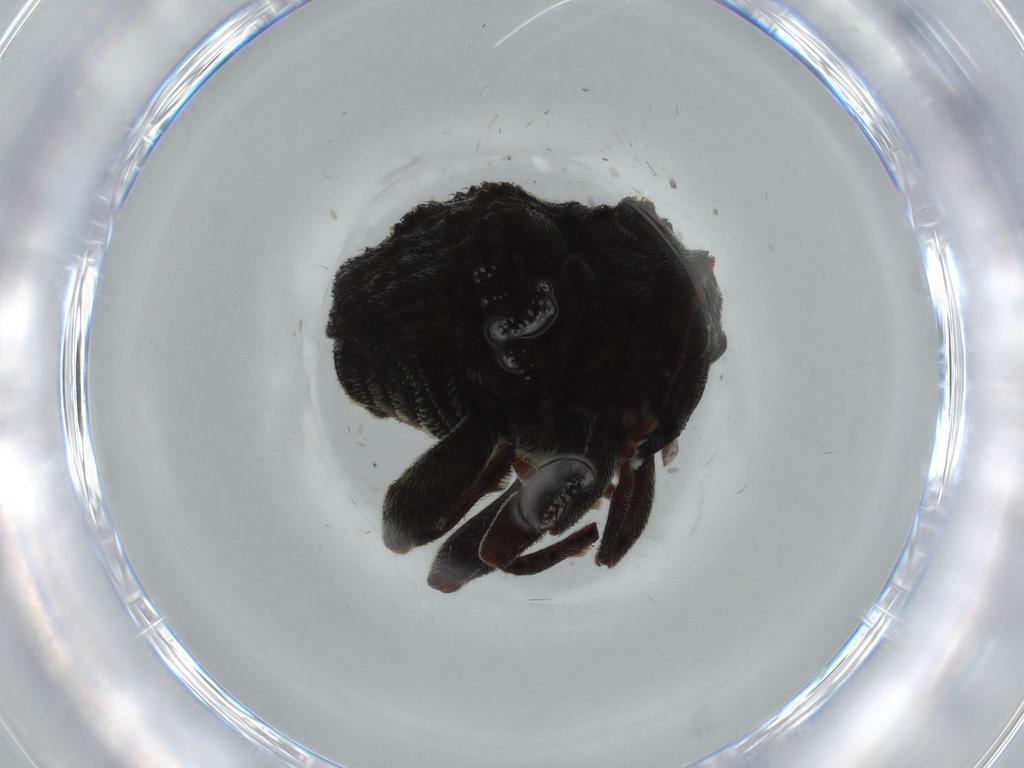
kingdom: Animalia
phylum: Arthropoda
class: Insecta
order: Coleoptera
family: Curculionidae
